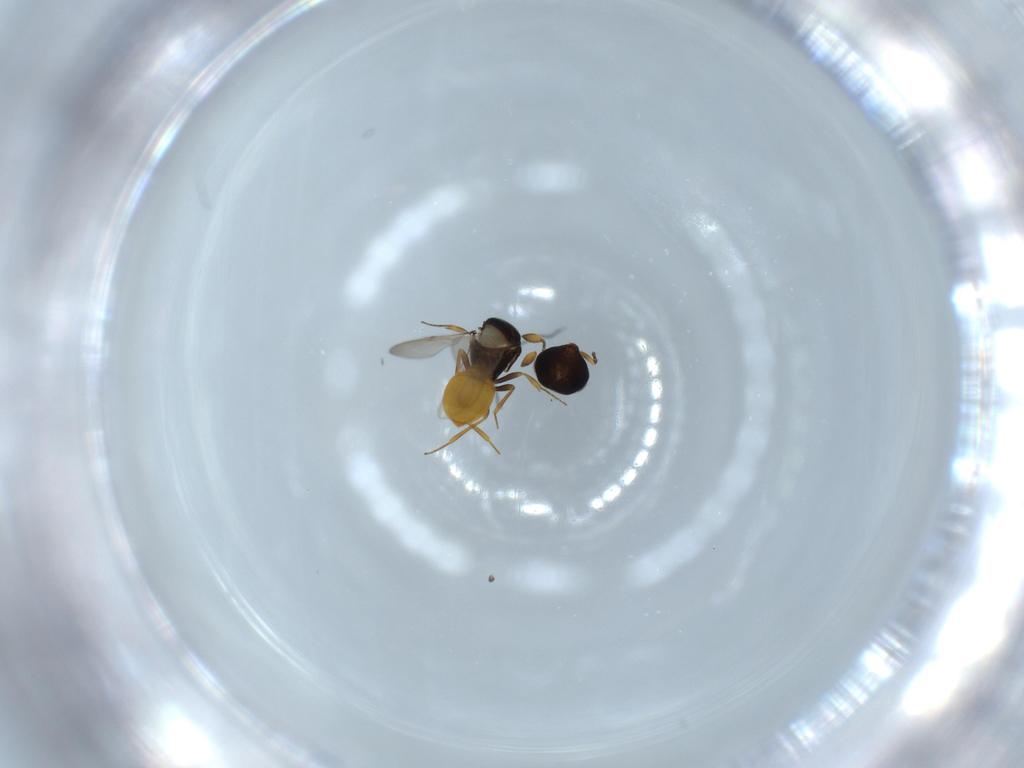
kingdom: Animalia
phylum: Arthropoda
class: Insecta
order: Hymenoptera
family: Scelionidae
